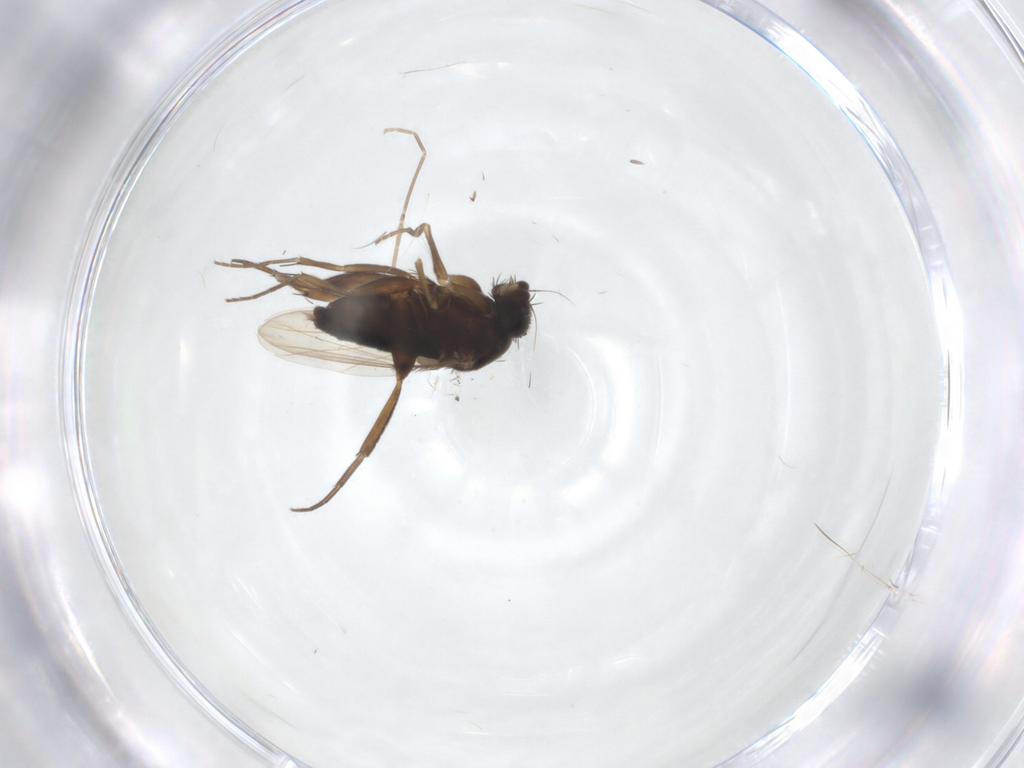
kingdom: Animalia
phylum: Arthropoda
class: Insecta
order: Diptera
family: Phoridae
